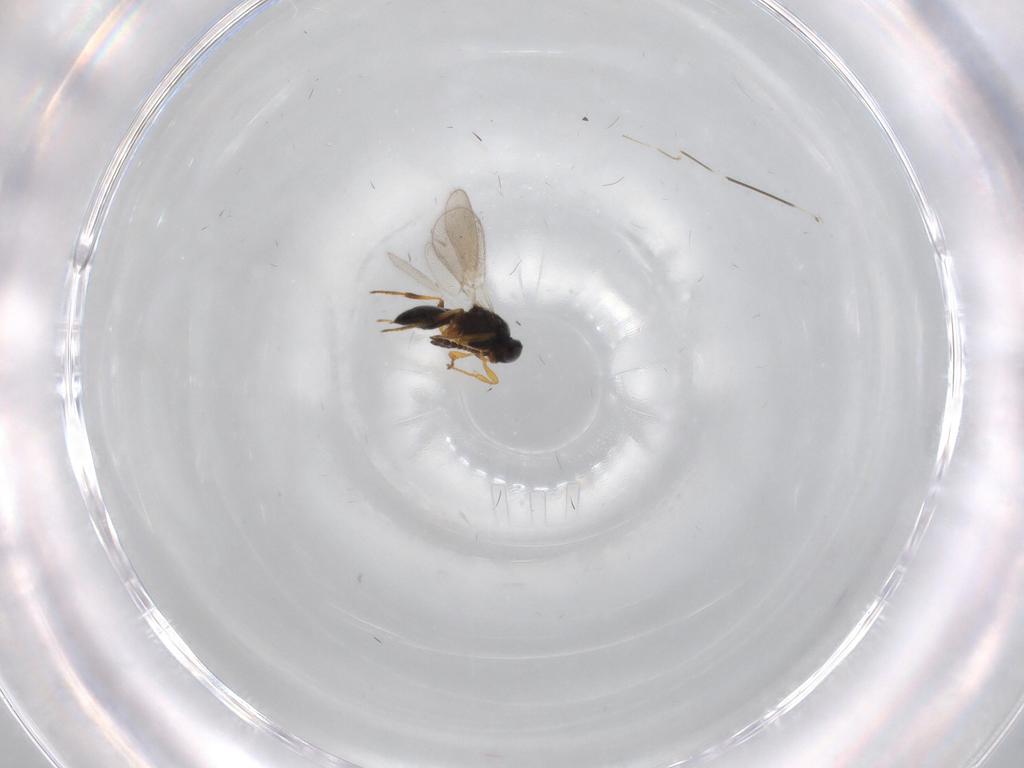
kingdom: Animalia
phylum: Arthropoda
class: Insecta
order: Hymenoptera
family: Platygastridae
